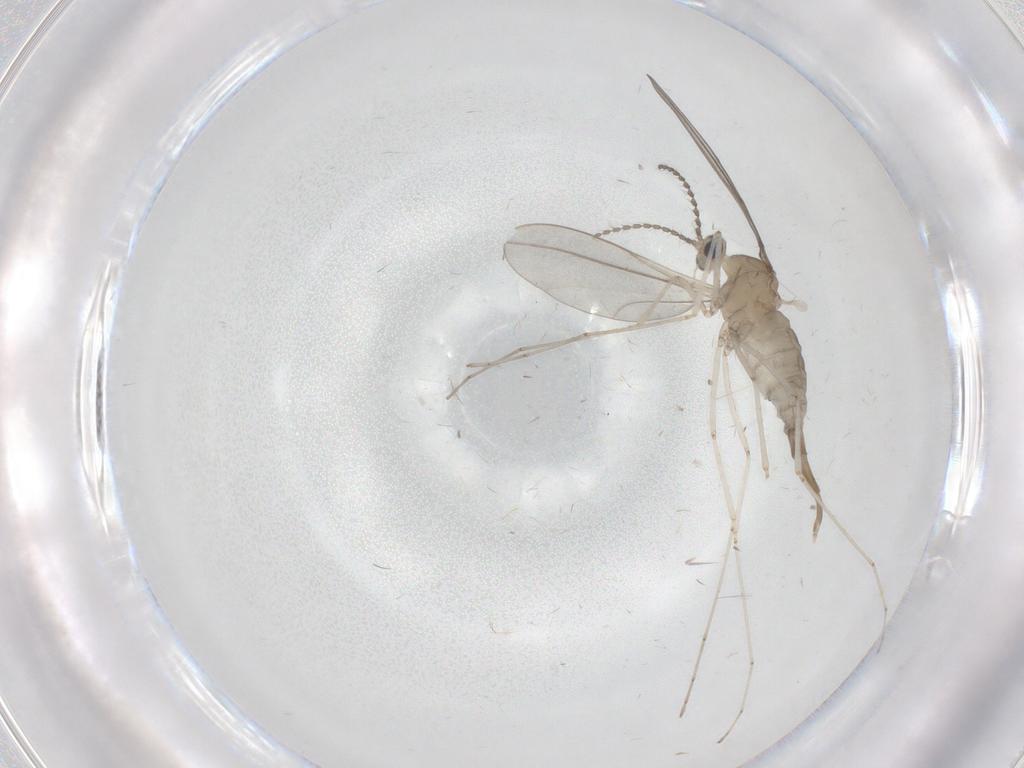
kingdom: Animalia
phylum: Arthropoda
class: Insecta
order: Diptera
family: Cecidomyiidae
